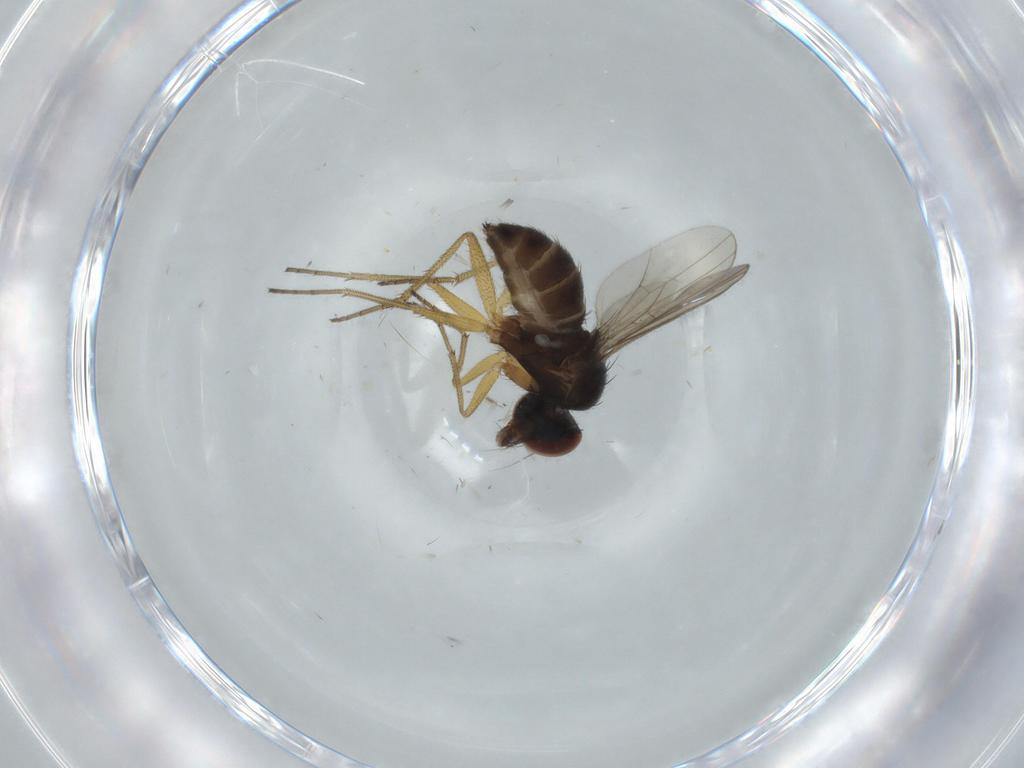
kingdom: Animalia
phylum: Arthropoda
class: Insecta
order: Diptera
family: Dolichopodidae
